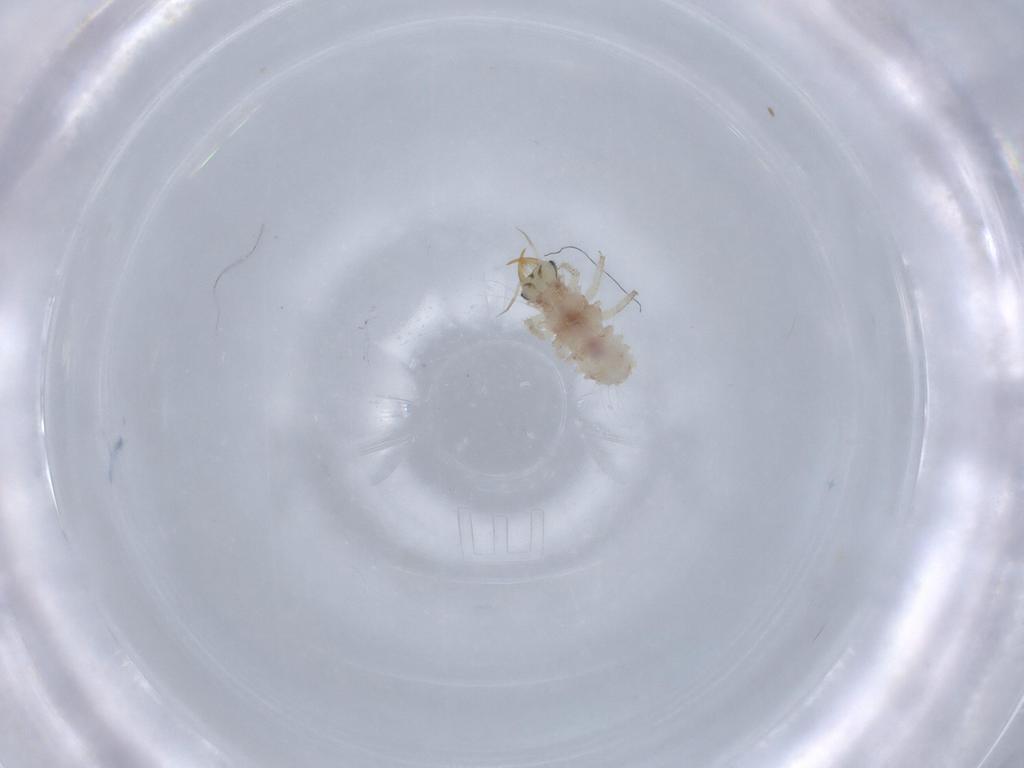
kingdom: Animalia
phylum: Arthropoda
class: Insecta
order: Neuroptera
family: Chrysopidae
